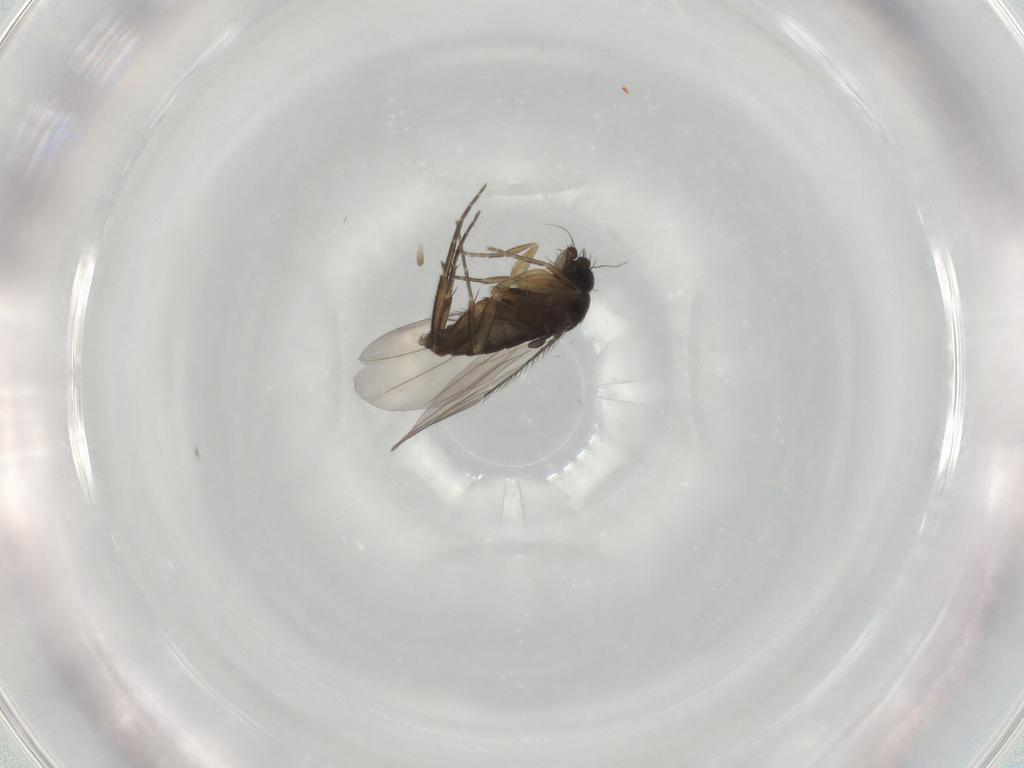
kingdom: Animalia
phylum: Arthropoda
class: Insecta
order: Diptera
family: Phoridae
